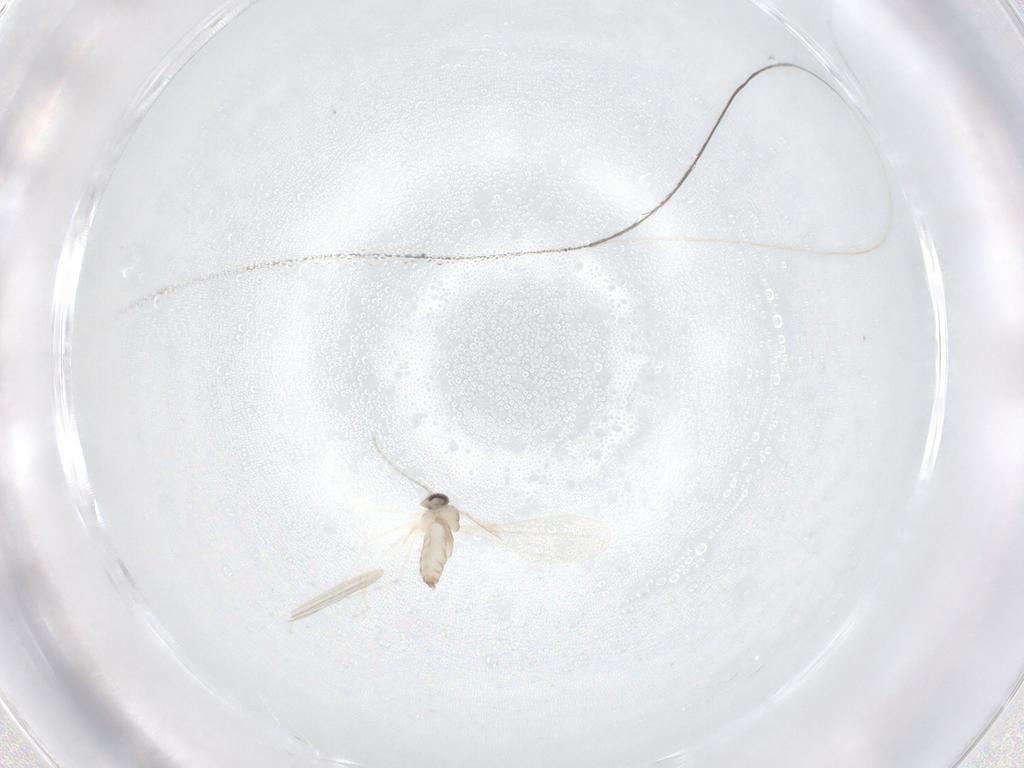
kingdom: Animalia
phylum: Arthropoda
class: Insecta
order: Diptera
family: Cecidomyiidae
